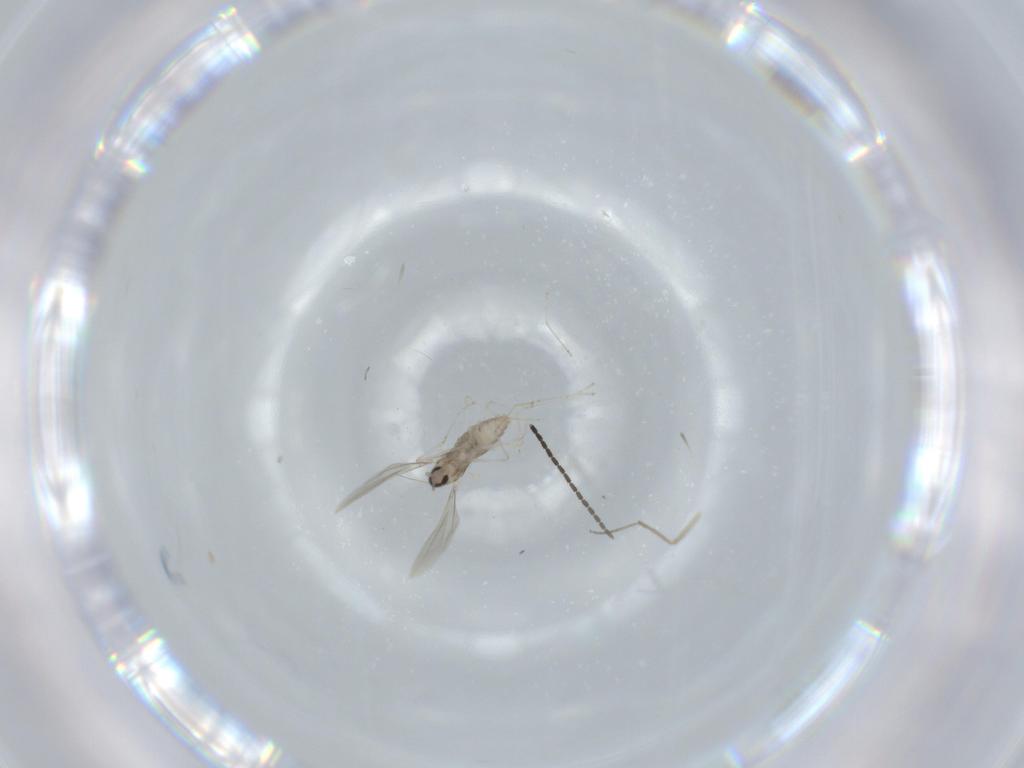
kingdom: Animalia
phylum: Arthropoda
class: Insecta
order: Diptera
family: Cecidomyiidae
